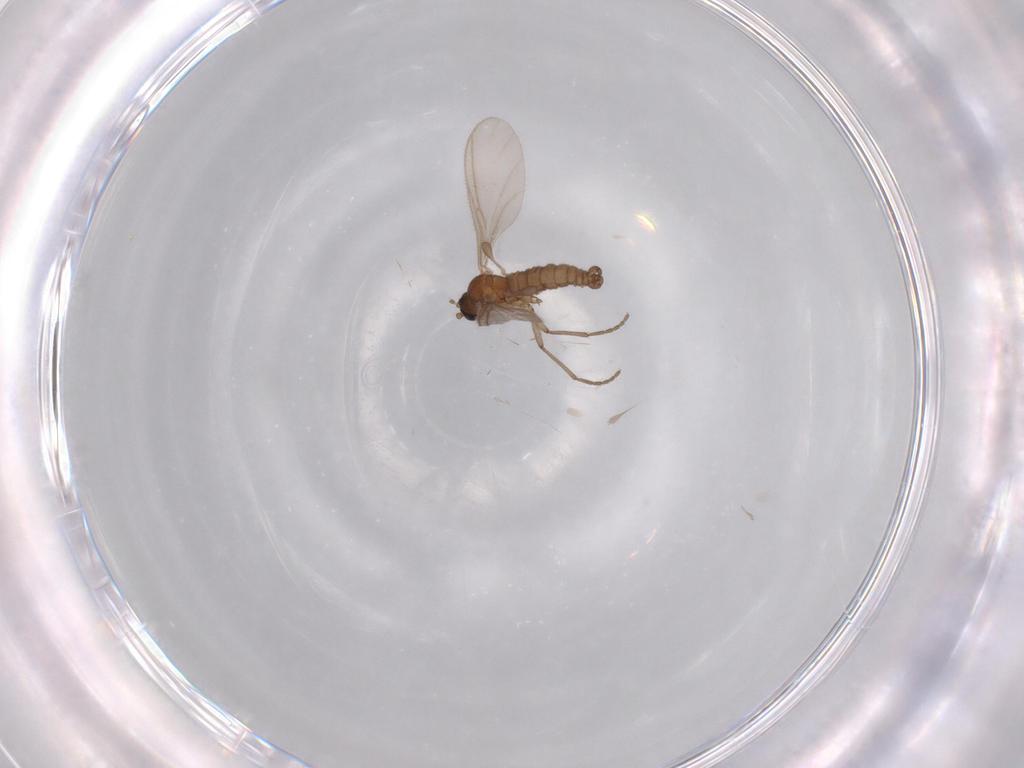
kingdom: Animalia
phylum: Arthropoda
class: Insecta
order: Diptera
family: Sciaridae
